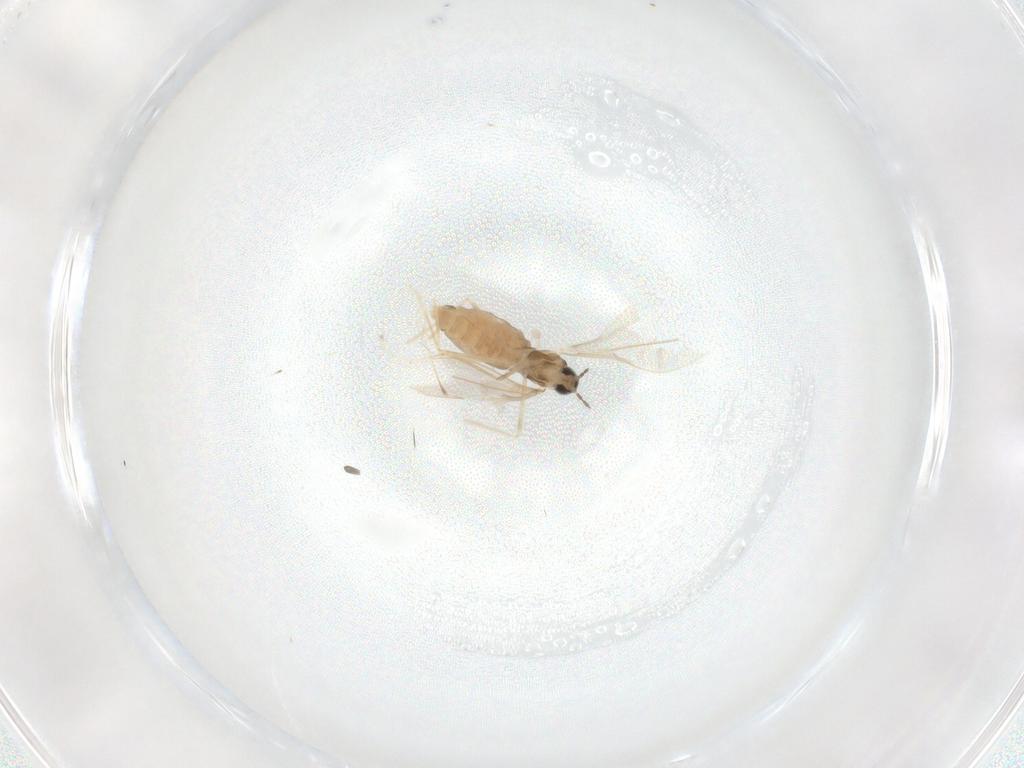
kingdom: Animalia
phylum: Arthropoda
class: Insecta
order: Diptera
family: Cecidomyiidae
